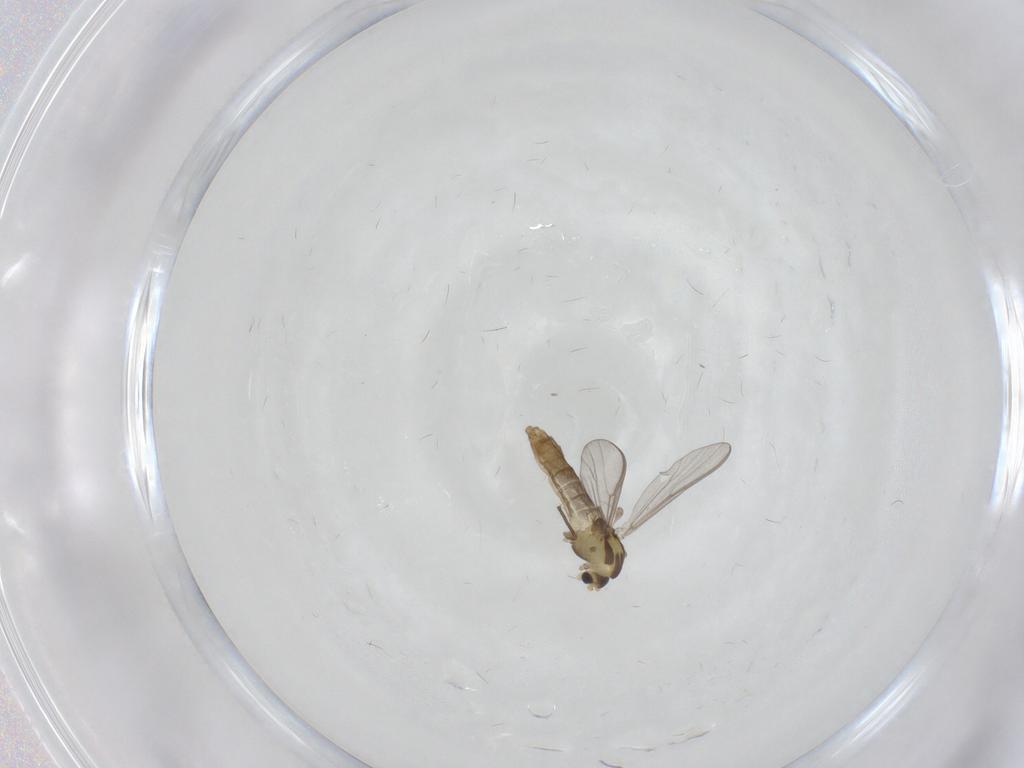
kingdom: Animalia
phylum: Arthropoda
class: Insecta
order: Diptera
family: Chironomidae
